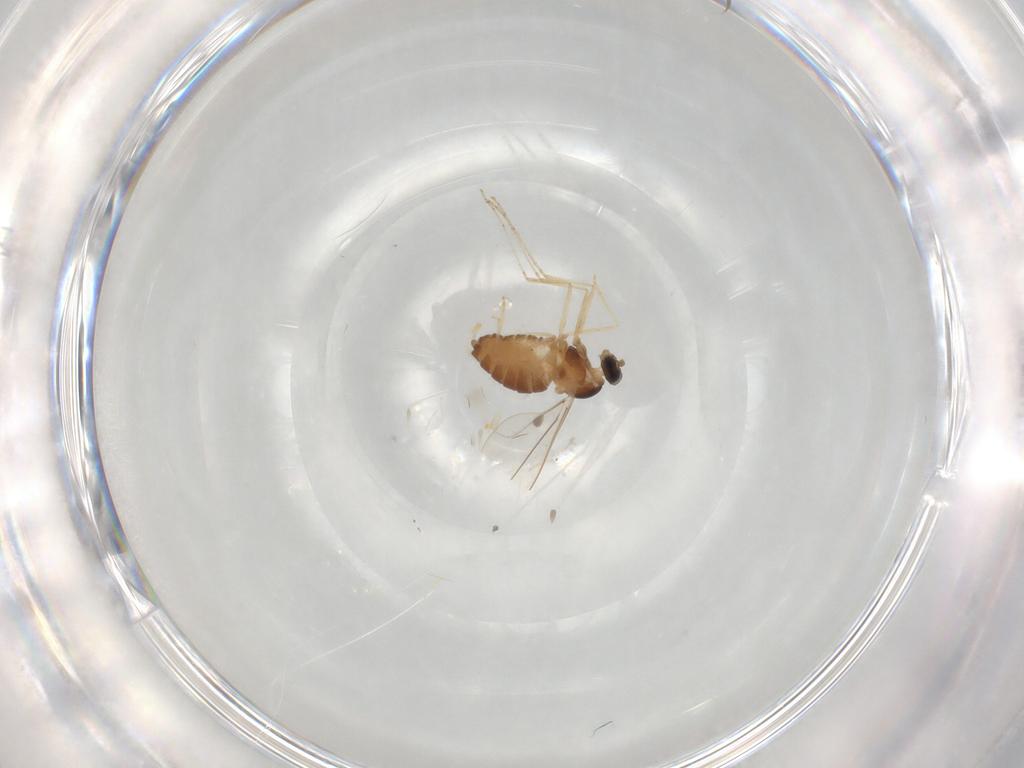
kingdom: Animalia
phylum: Arthropoda
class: Insecta
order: Diptera
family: Cecidomyiidae
